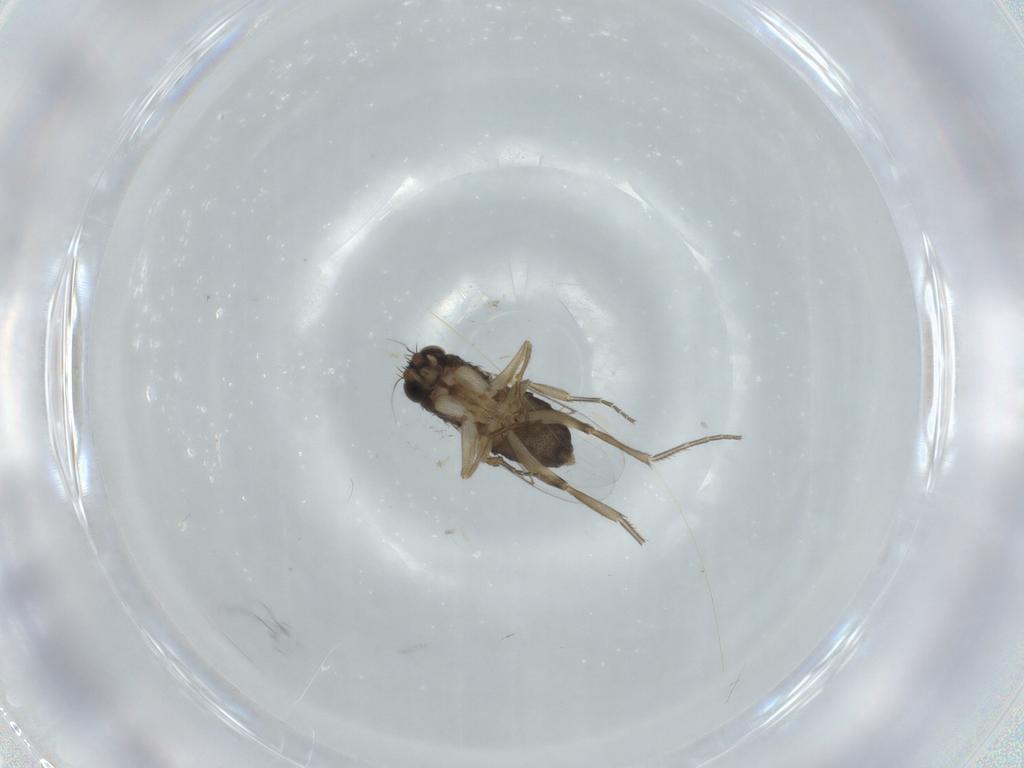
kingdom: Animalia
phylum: Arthropoda
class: Insecta
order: Diptera
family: Phoridae
